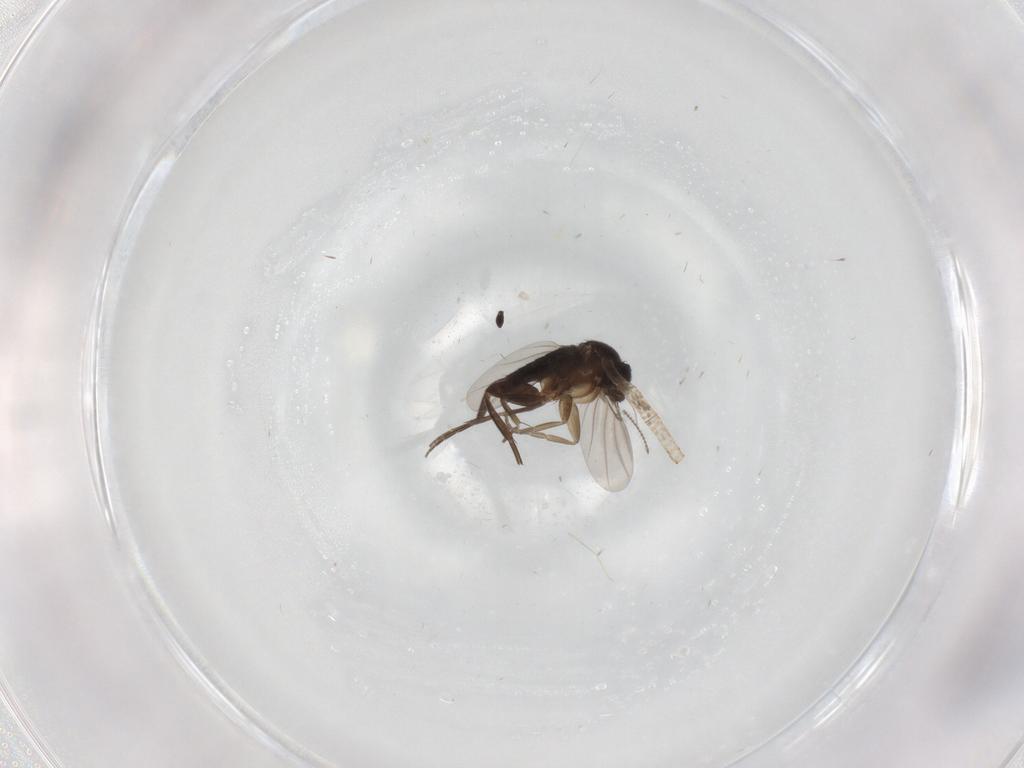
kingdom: Animalia
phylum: Arthropoda
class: Insecta
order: Diptera
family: Phoridae
